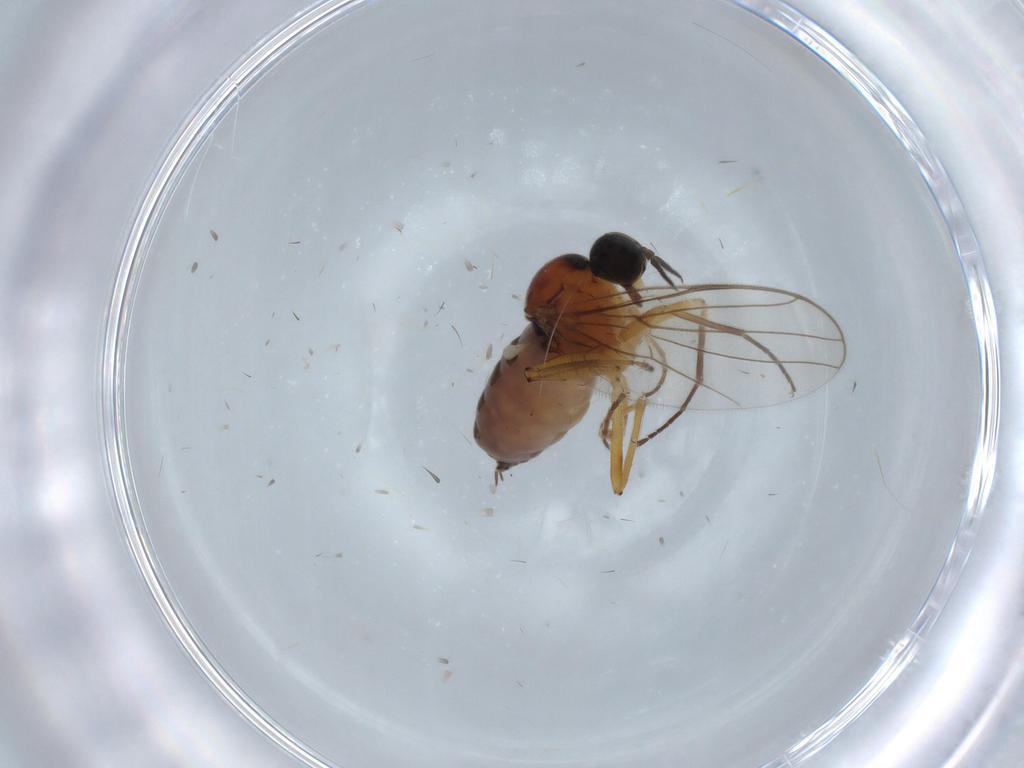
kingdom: Animalia
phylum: Arthropoda
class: Insecta
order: Diptera
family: Hybotidae
